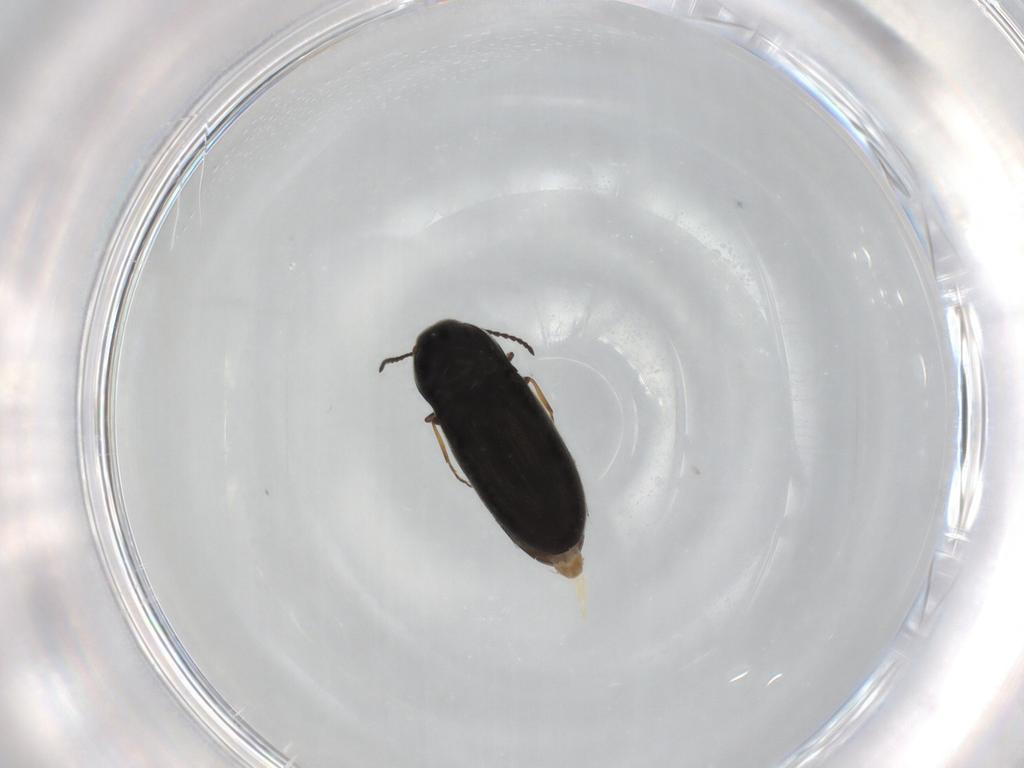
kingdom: Animalia
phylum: Arthropoda
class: Insecta
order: Coleoptera
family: Elateridae
